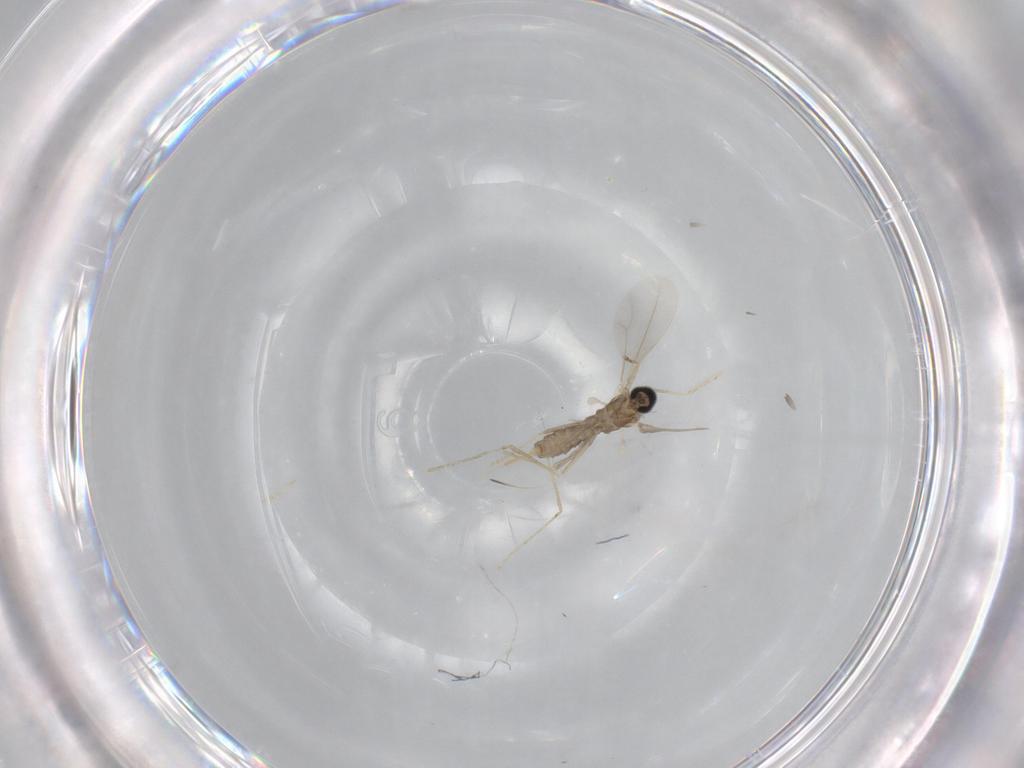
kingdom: Animalia
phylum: Arthropoda
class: Insecta
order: Diptera
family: Cecidomyiidae
